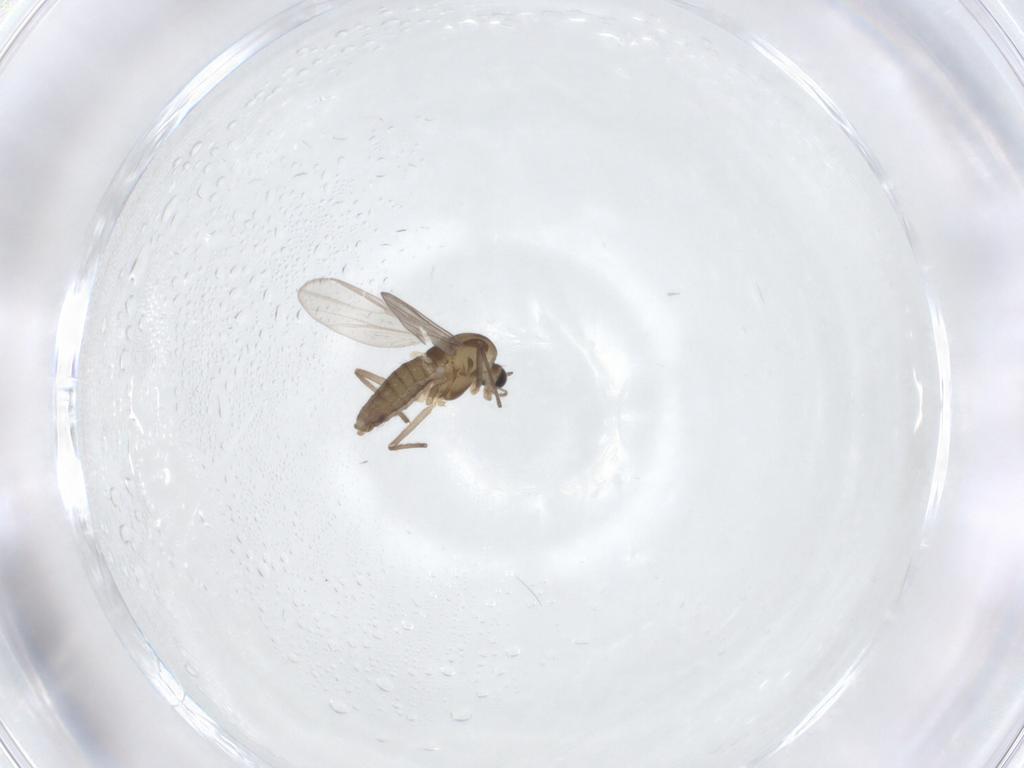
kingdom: Animalia
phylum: Arthropoda
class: Insecta
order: Diptera
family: Chironomidae
